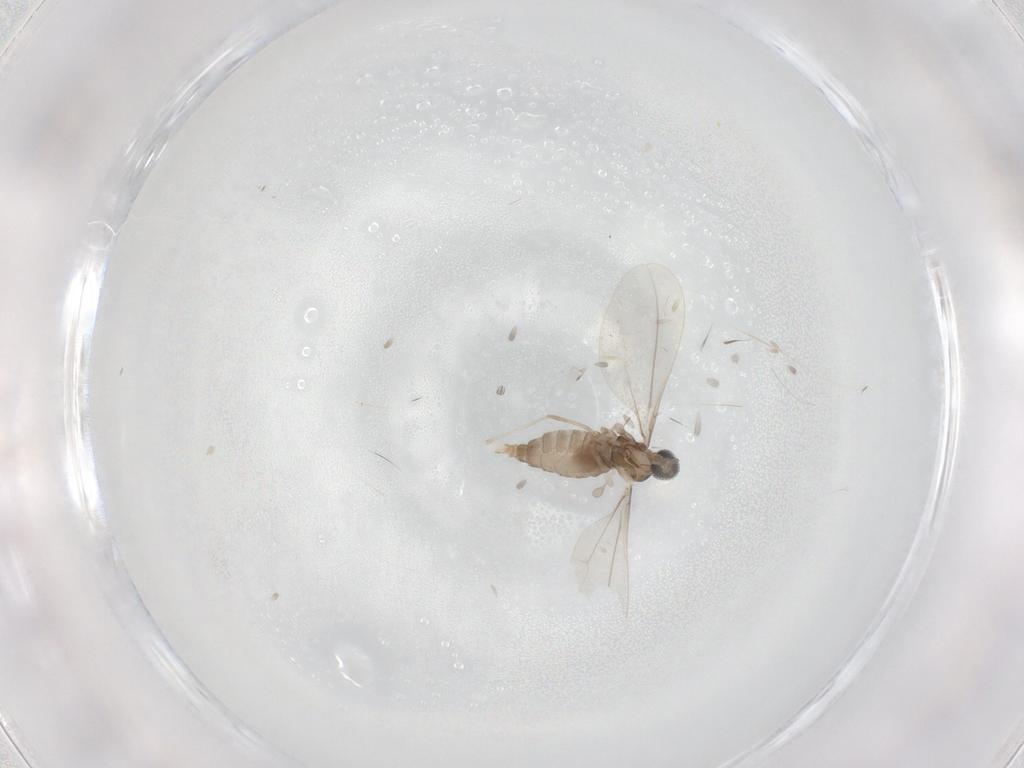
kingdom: Animalia
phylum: Arthropoda
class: Insecta
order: Diptera
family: Cecidomyiidae
